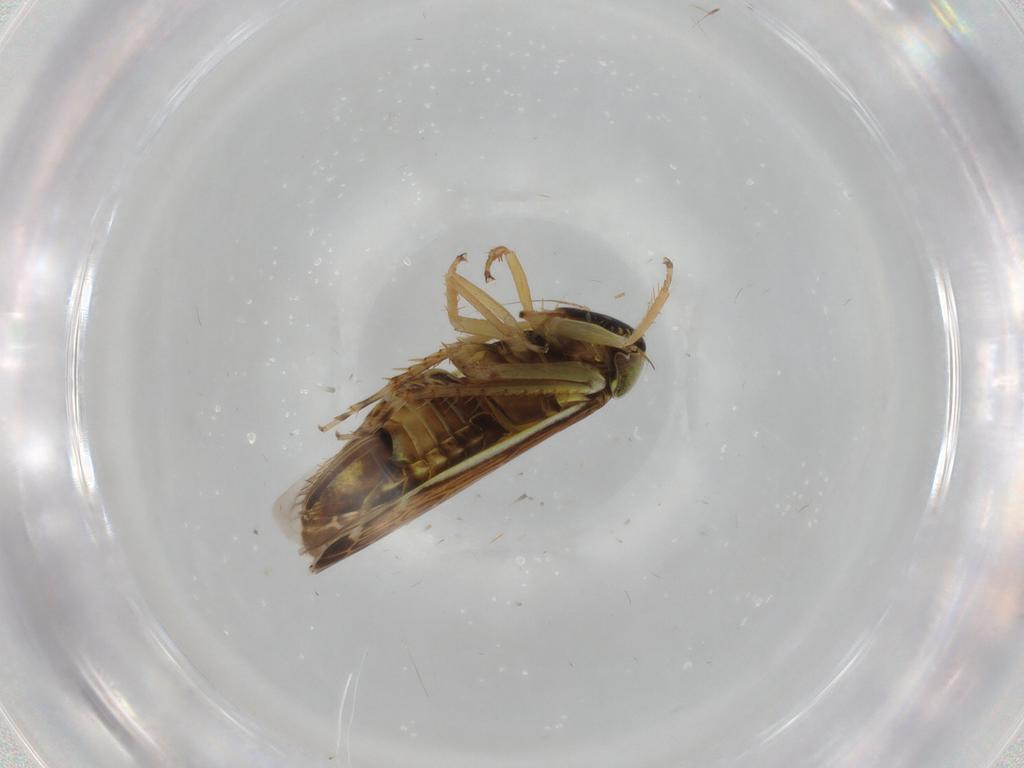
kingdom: Animalia
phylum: Arthropoda
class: Insecta
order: Hemiptera
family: Cicadellidae
